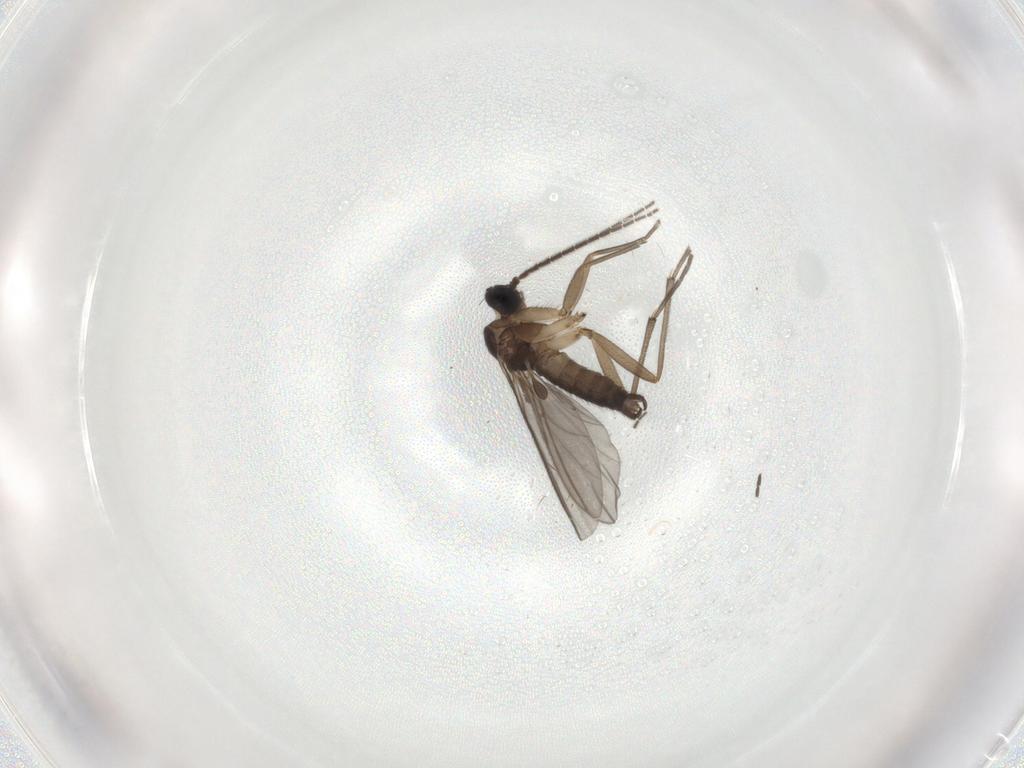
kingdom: Animalia
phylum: Arthropoda
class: Insecta
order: Diptera
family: Sciaridae
